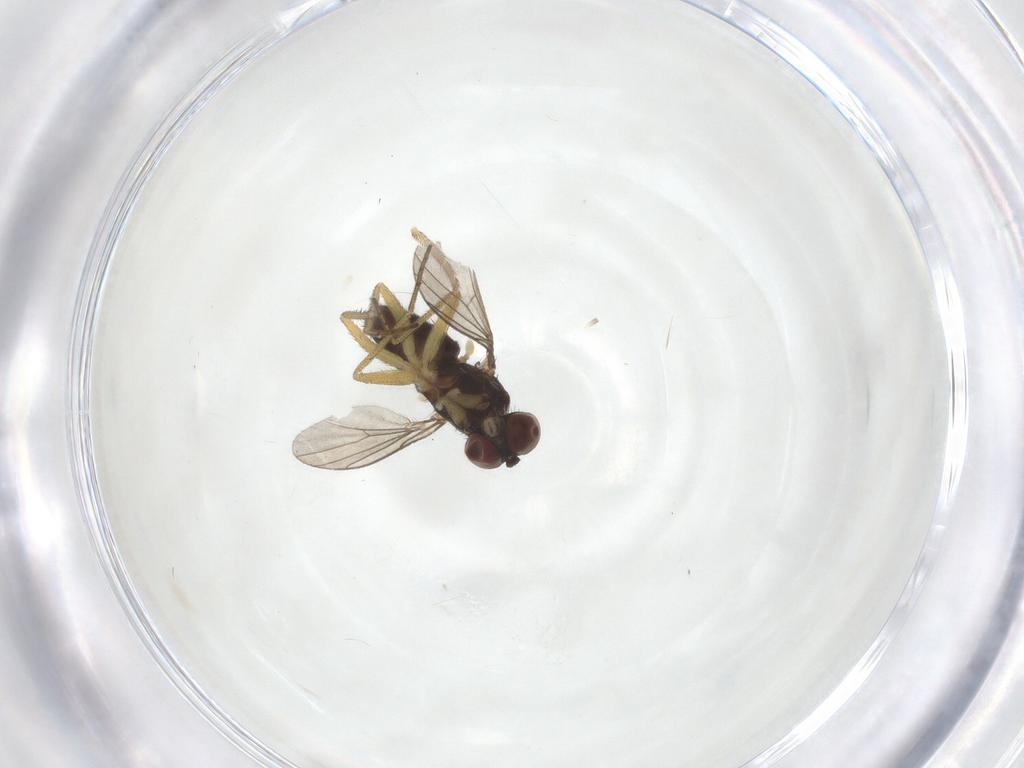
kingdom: Animalia
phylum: Arthropoda
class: Insecta
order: Diptera
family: Dolichopodidae
